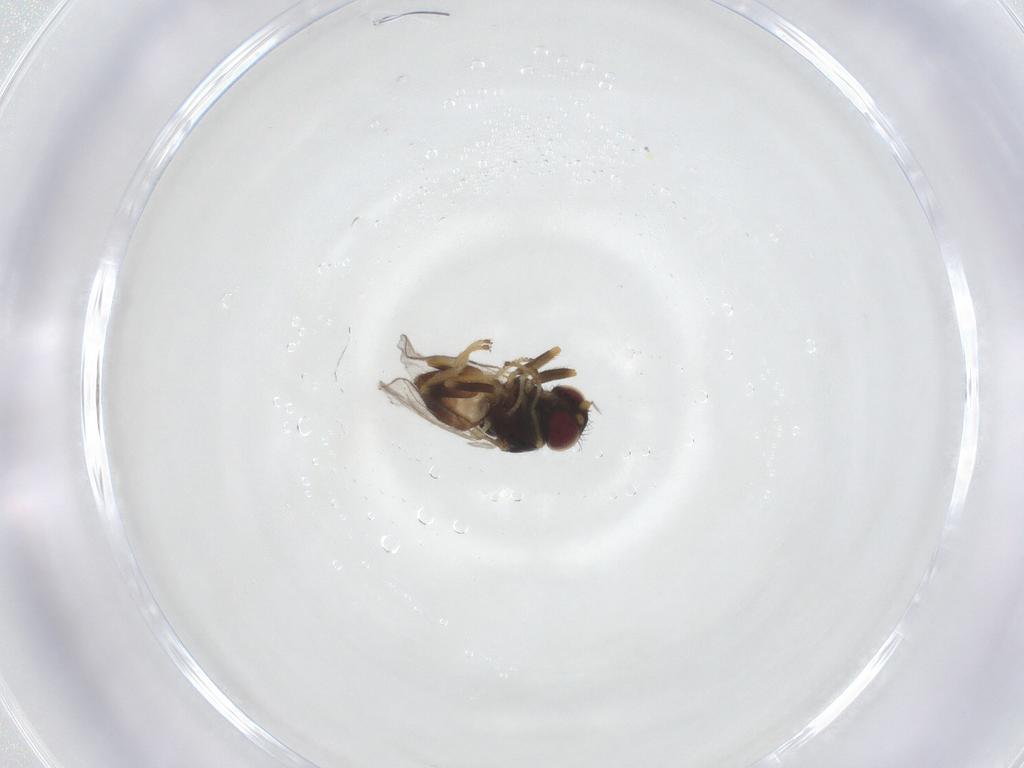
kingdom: Animalia
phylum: Arthropoda
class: Insecta
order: Diptera
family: Chloropidae
